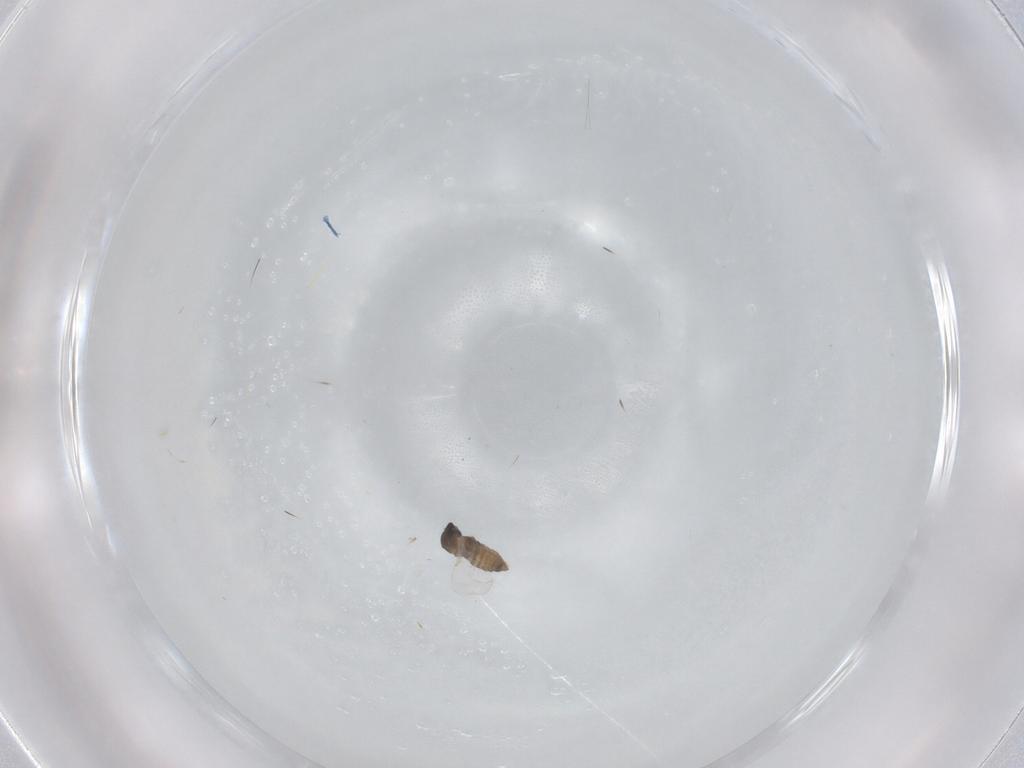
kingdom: Animalia
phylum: Arthropoda
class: Insecta
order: Diptera
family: Cecidomyiidae
